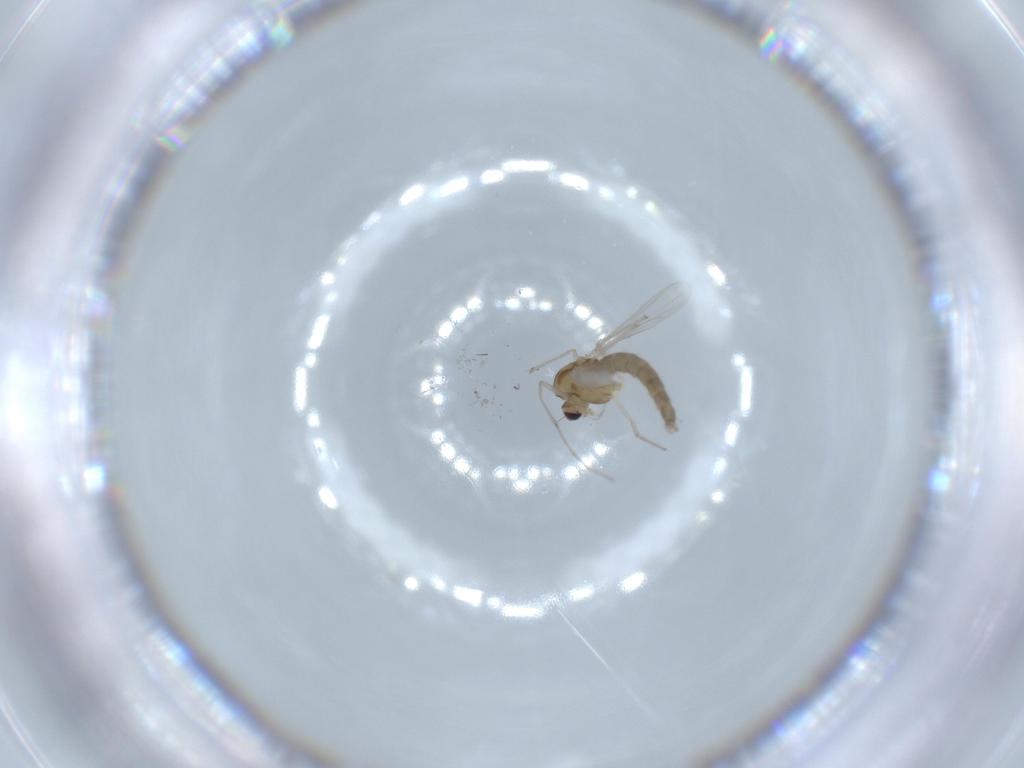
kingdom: Animalia
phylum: Arthropoda
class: Insecta
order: Diptera
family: Chironomidae
